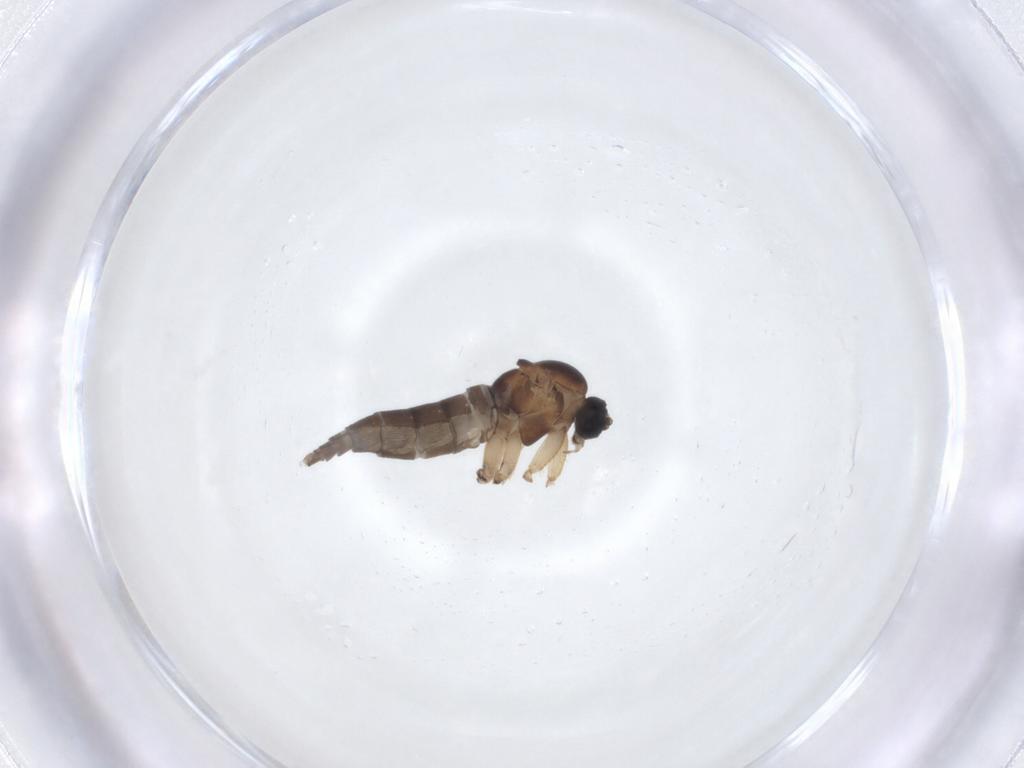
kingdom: Animalia
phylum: Arthropoda
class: Insecta
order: Diptera
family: Sciaridae
